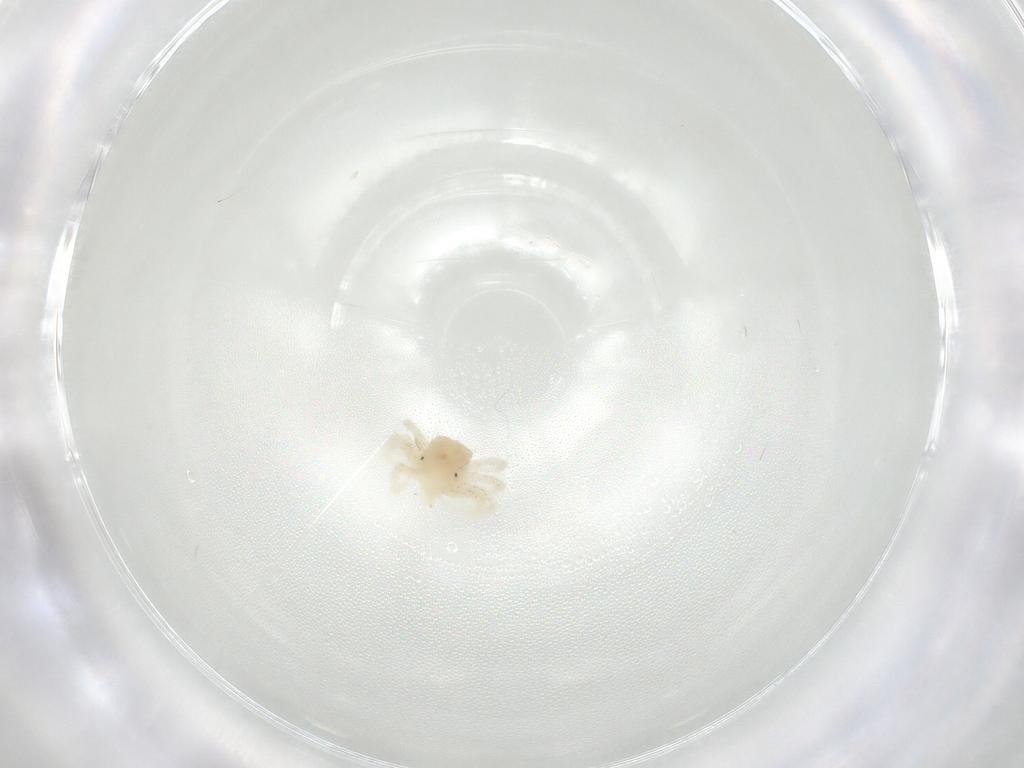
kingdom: Animalia
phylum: Arthropoda
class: Arachnida
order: Trombidiformes
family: Anystidae
